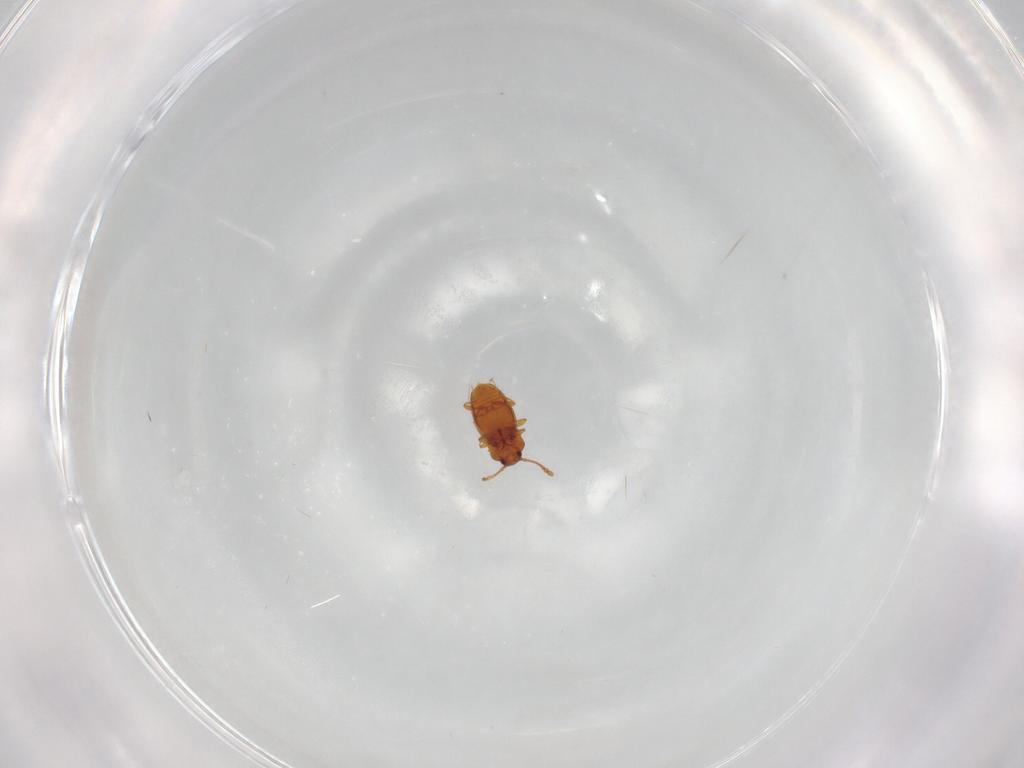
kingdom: Animalia
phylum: Arthropoda
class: Insecta
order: Coleoptera
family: Staphylinidae
